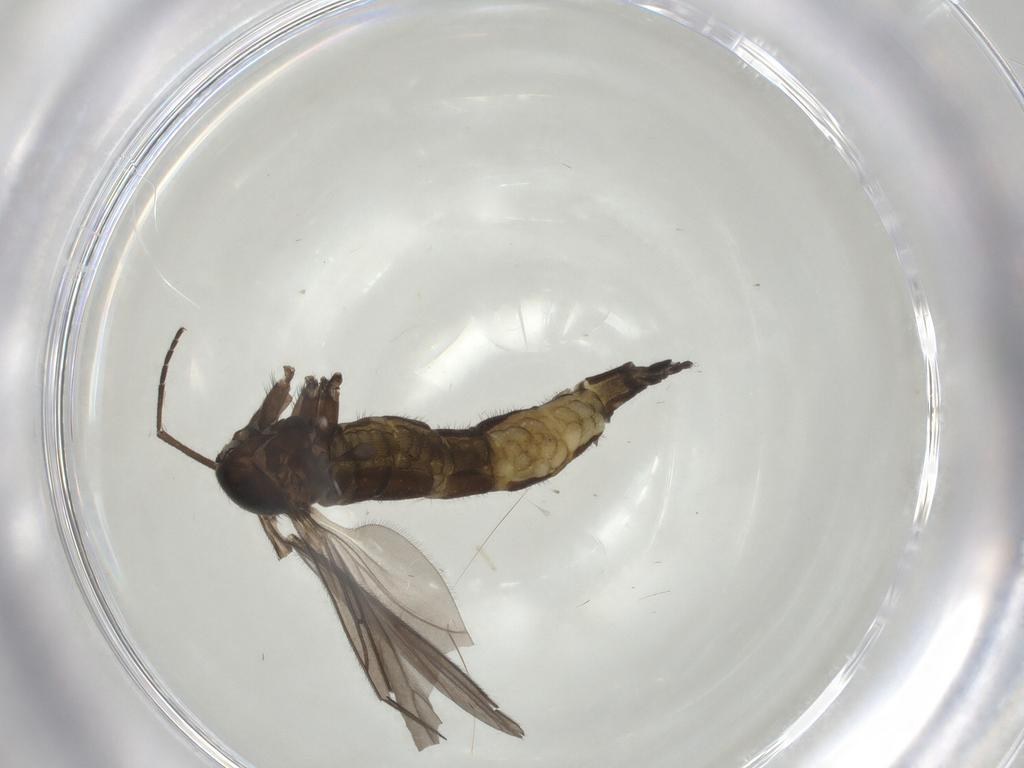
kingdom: Animalia
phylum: Arthropoda
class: Insecta
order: Diptera
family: Sciaridae
